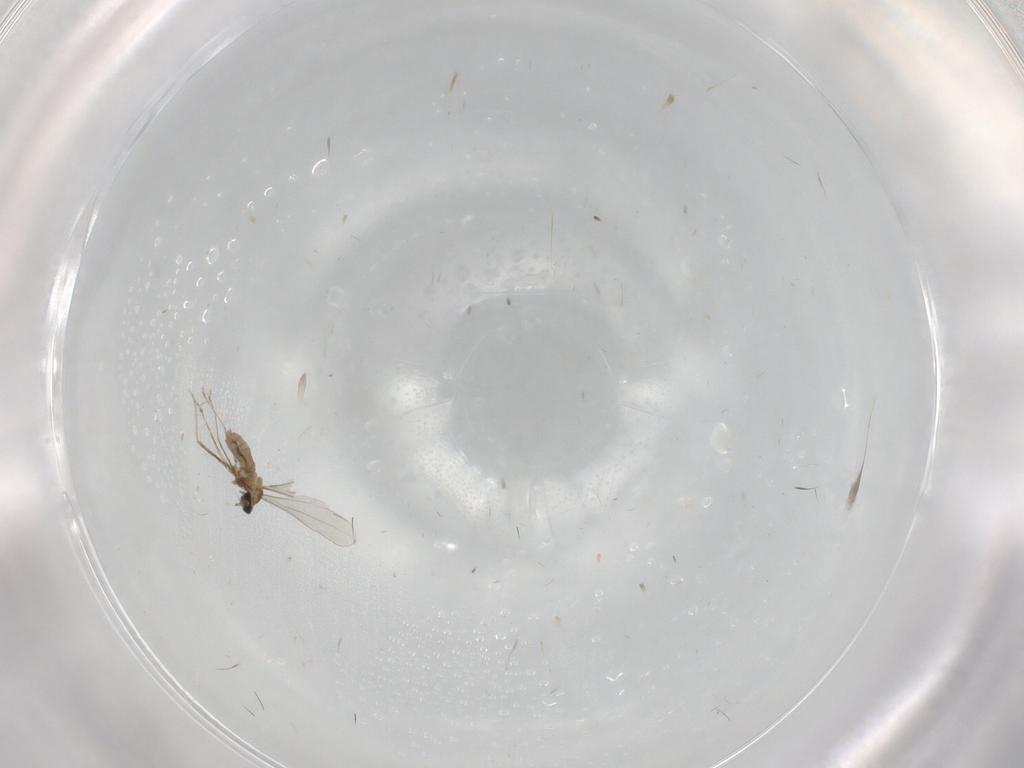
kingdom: Animalia
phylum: Arthropoda
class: Insecta
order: Diptera
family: Cecidomyiidae
